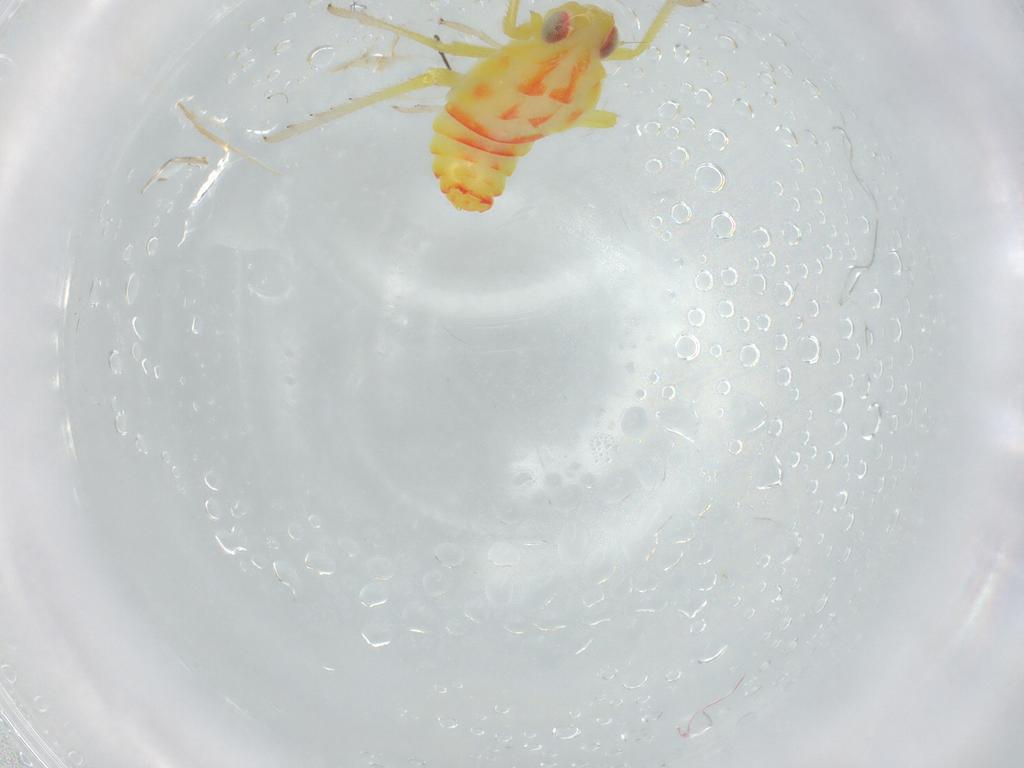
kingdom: Animalia
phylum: Arthropoda
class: Insecta
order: Hemiptera
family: Tropiduchidae
